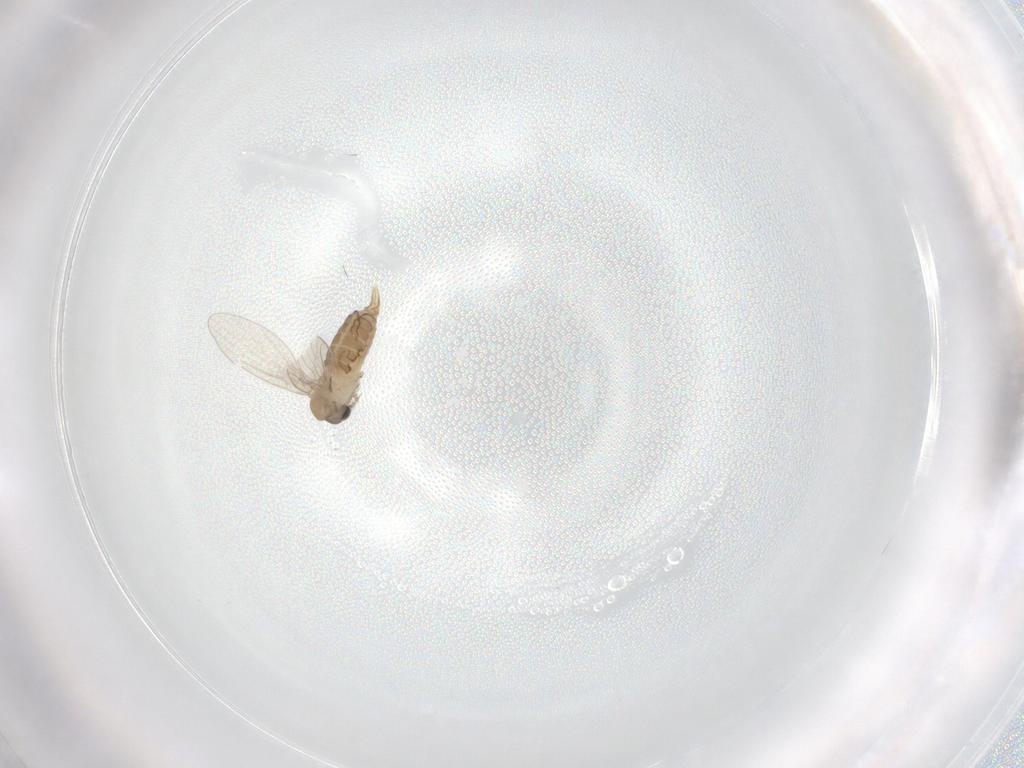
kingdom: Animalia
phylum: Arthropoda
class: Insecta
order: Diptera
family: Psychodidae
